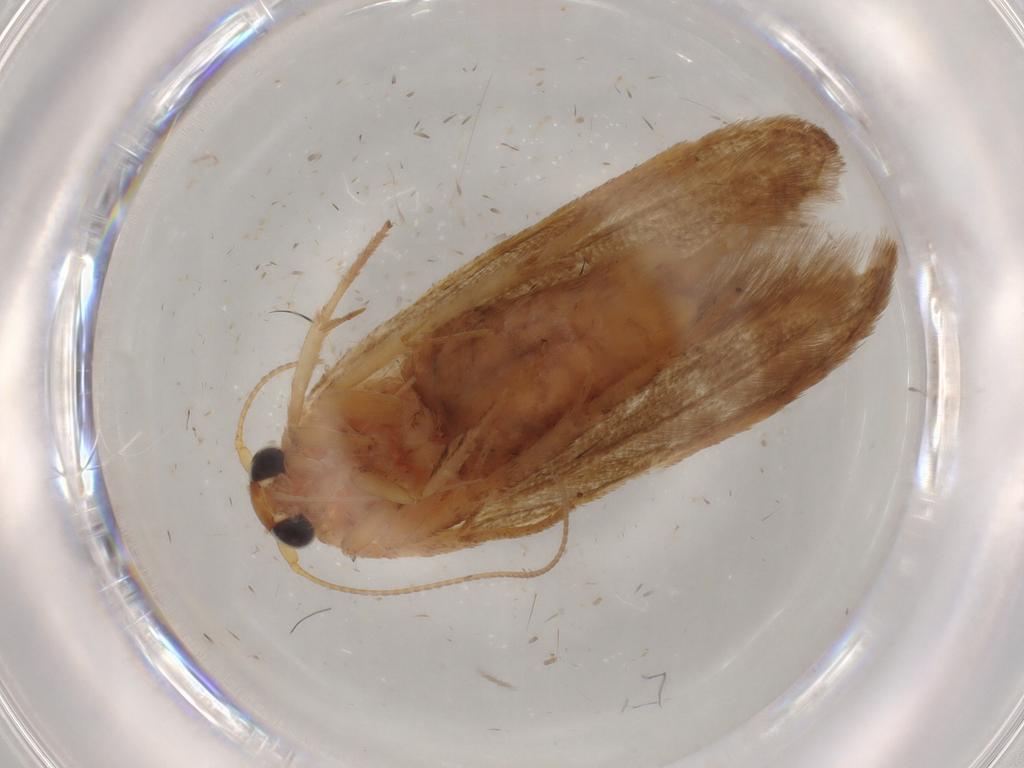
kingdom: Animalia
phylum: Arthropoda
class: Insecta
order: Lepidoptera
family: Blastobasidae
